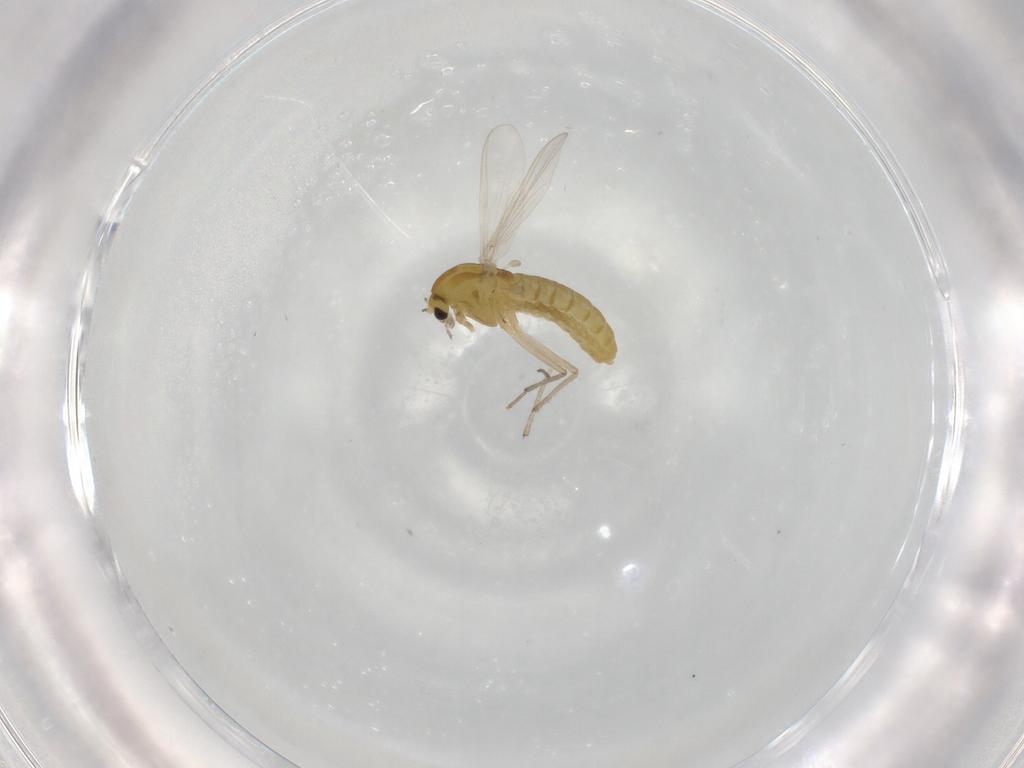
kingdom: Animalia
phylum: Arthropoda
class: Insecta
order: Diptera
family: Chironomidae
